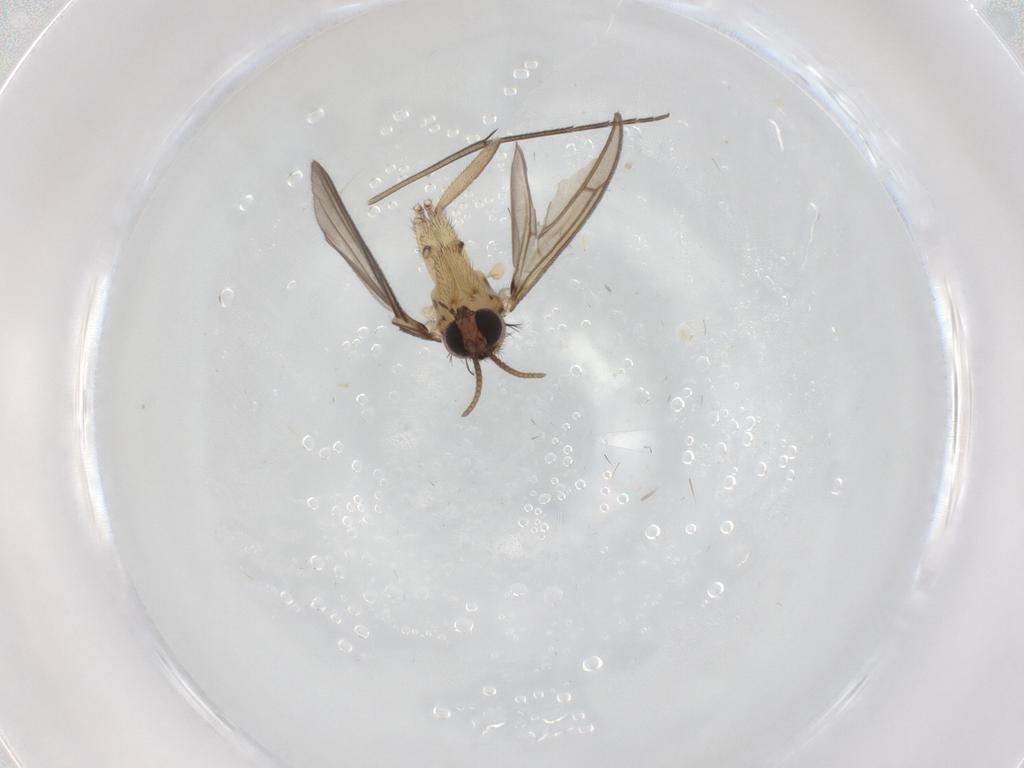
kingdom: Animalia
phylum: Arthropoda
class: Insecta
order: Diptera
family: Keroplatidae
